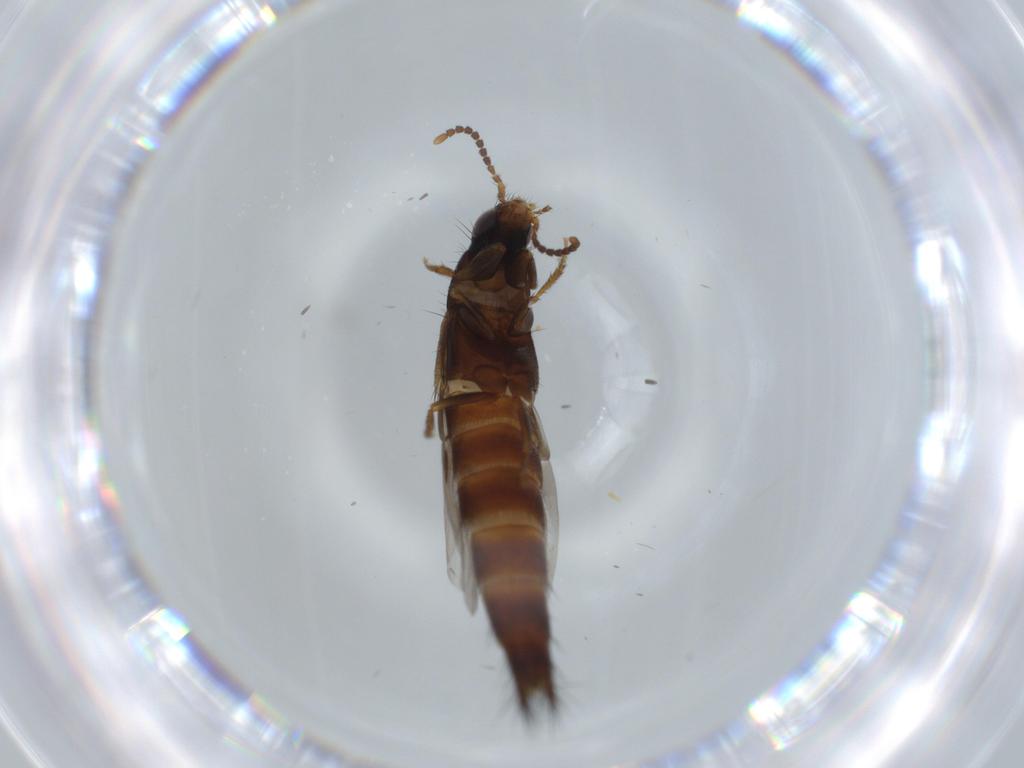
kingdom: Animalia
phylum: Arthropoda
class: Insecta
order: Coleoptera
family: Staphylinidae
